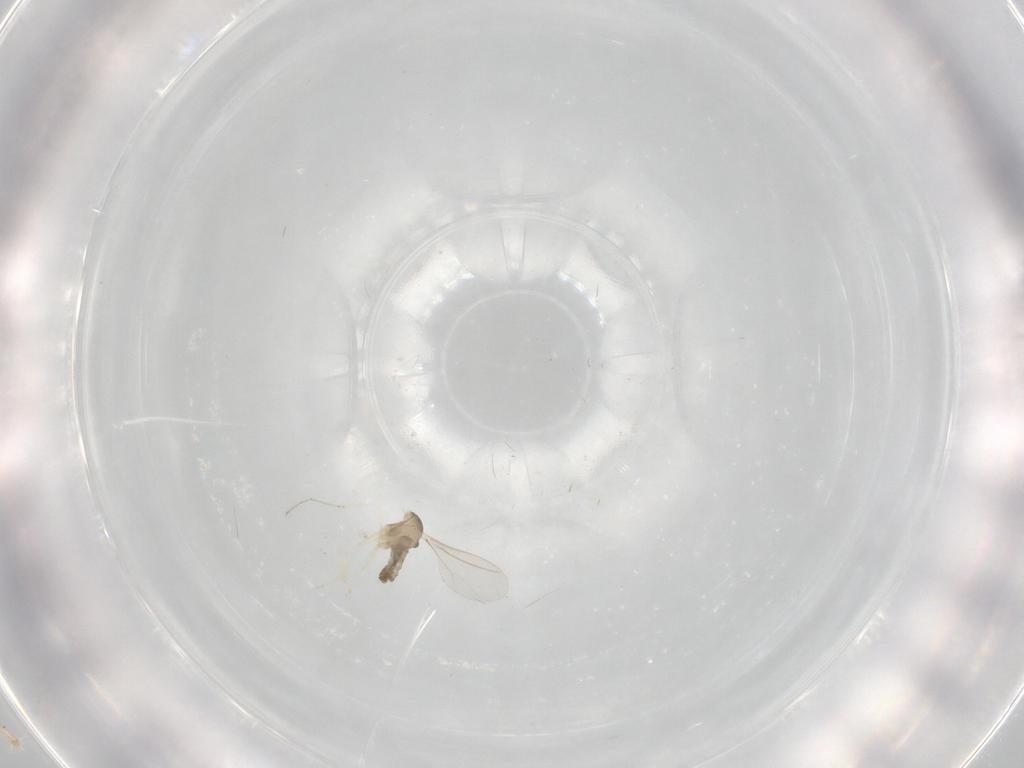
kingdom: Animalia
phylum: Arthropoda
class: Insecta
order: Diptera
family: Cecidomyiidae
